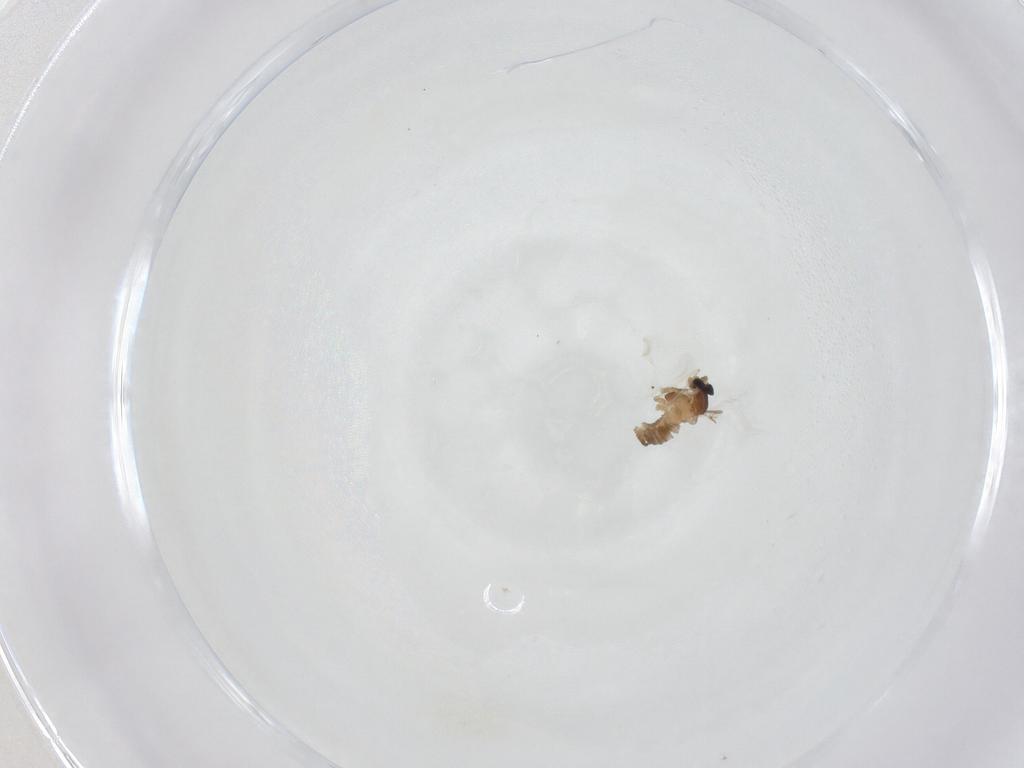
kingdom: Animalia
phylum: Arthropoda
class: Insecta
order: Diptera
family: Cecidomyiidae
